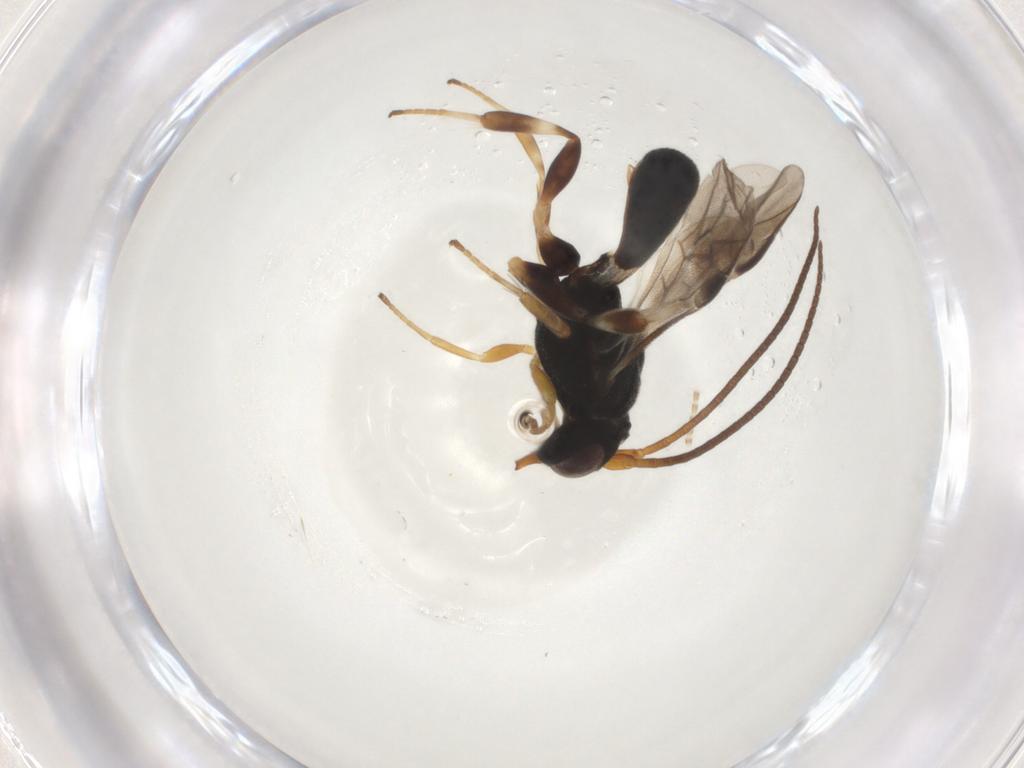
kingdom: Animalia
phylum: Arthropoda
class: Insecta
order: Hymenoptera
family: Braconidae
